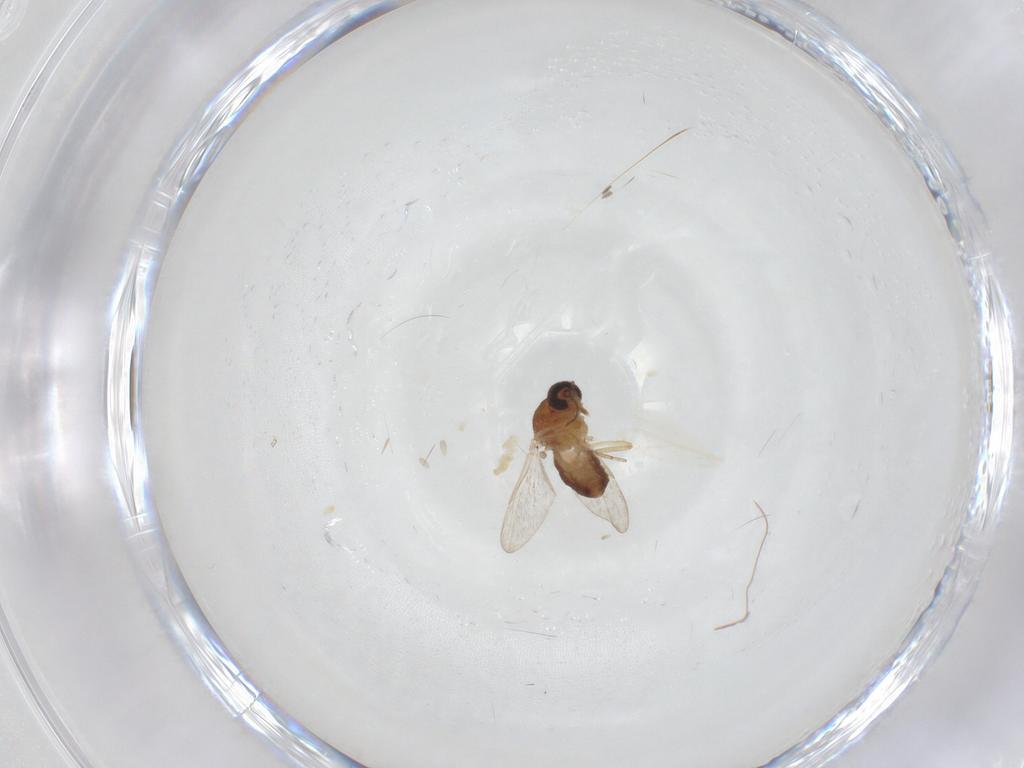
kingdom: Animalia
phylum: Arthropoda
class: Insecta
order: Diptera
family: Ceratopogonidae
